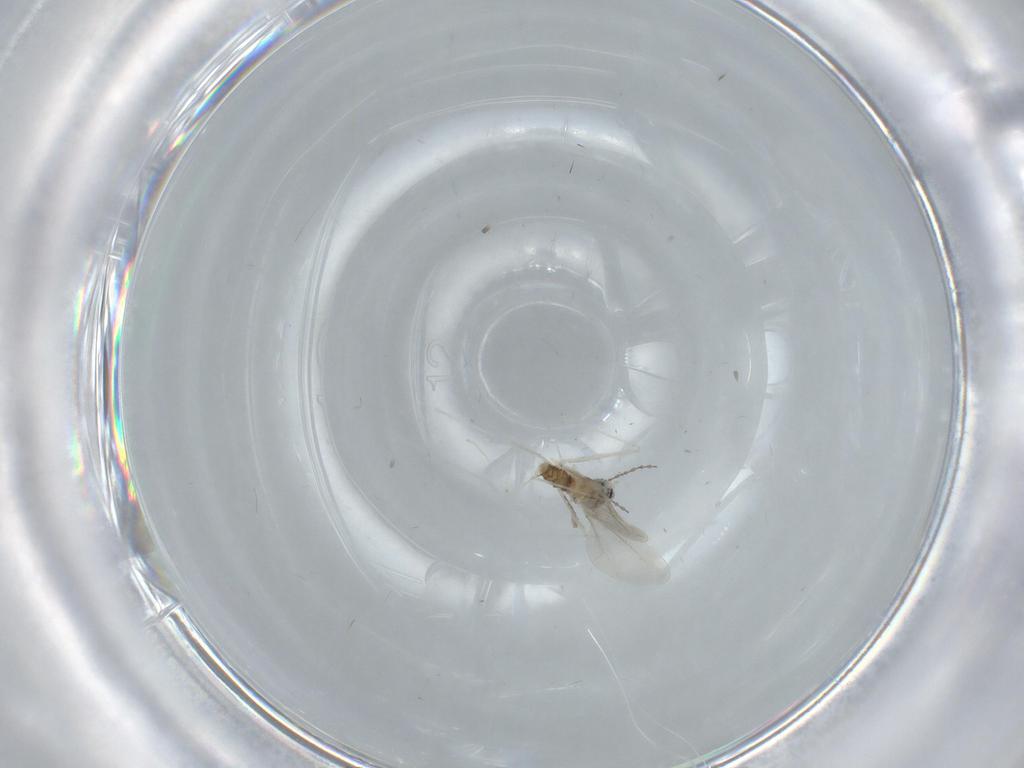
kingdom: Animalia
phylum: Arthropoda
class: Insecta
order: Diptera
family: Cecidomyiidae
